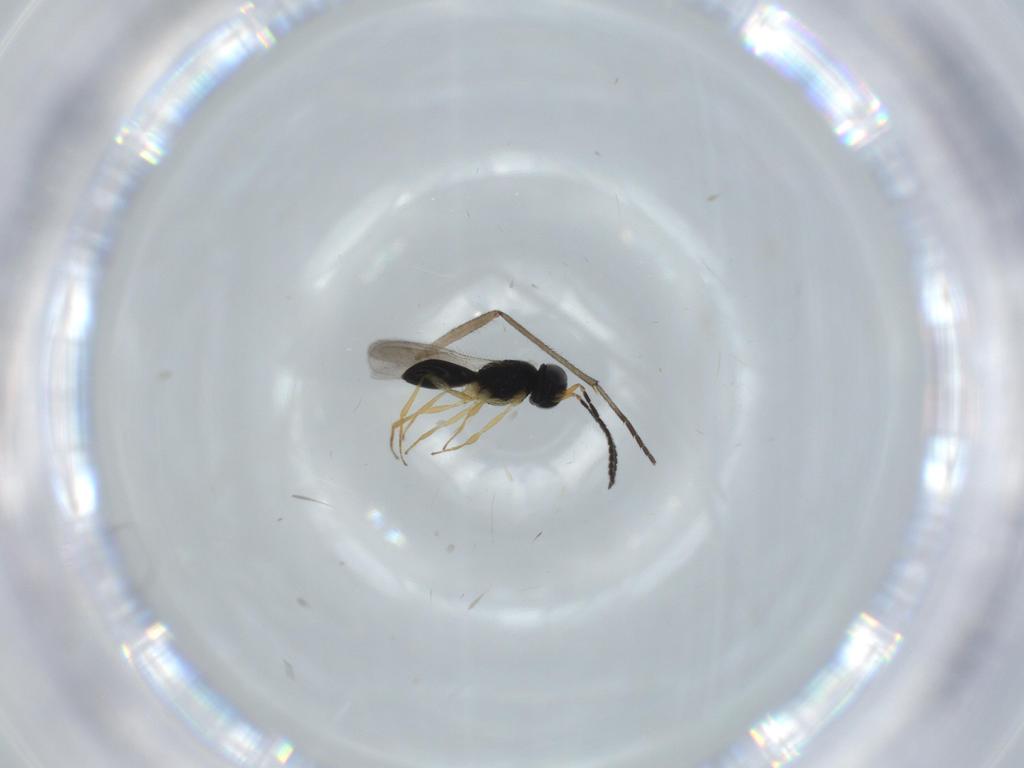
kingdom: Animalia
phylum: Arthropoda
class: Insecta
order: Hymenoptera
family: Scelionidae
